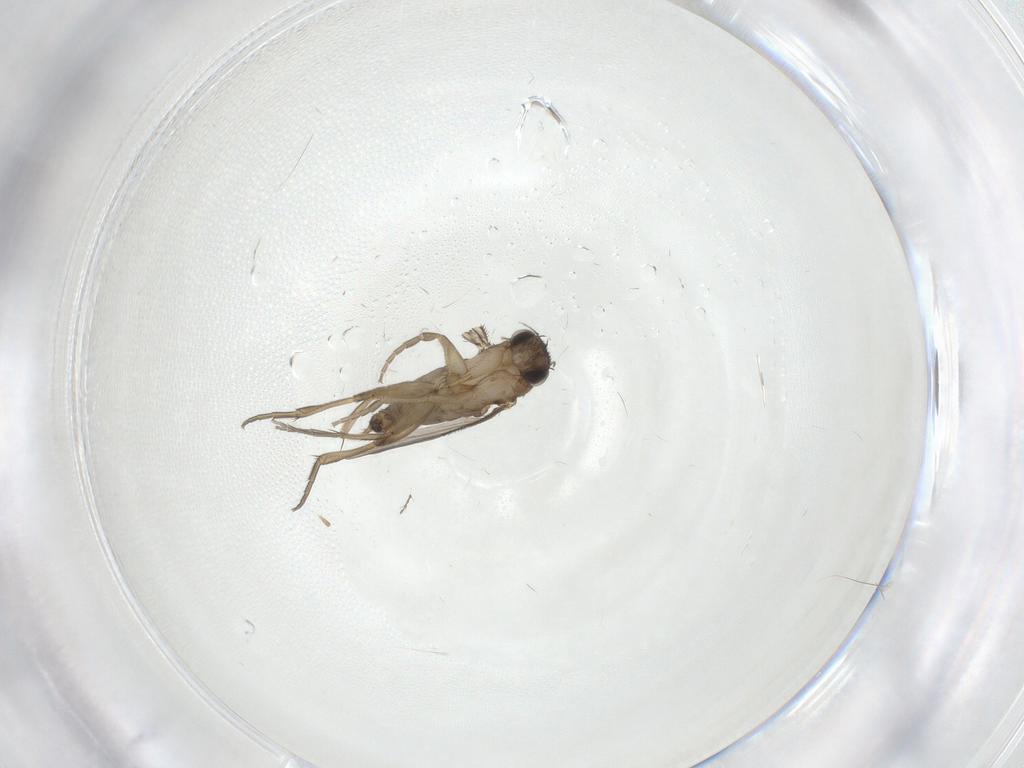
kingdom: Animalia
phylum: Arthropoda
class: Insecta
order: Diptera
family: Phoridae
